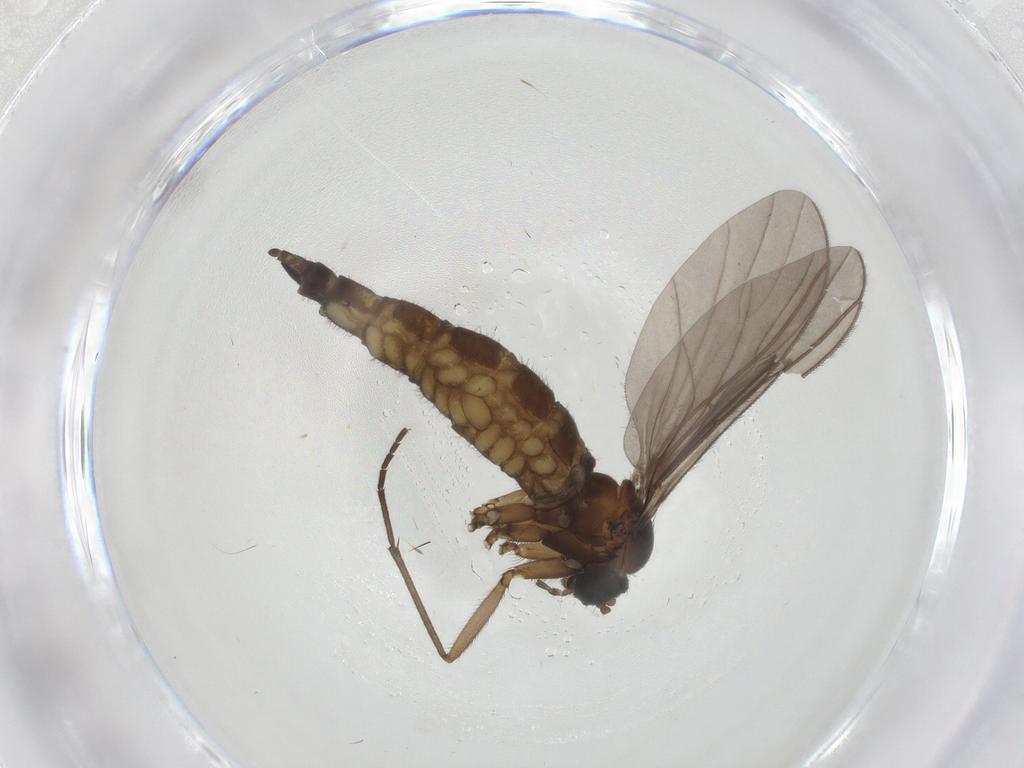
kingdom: Animalia
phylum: Arthropoda
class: Insecta
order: Diptera
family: Sciaridae
